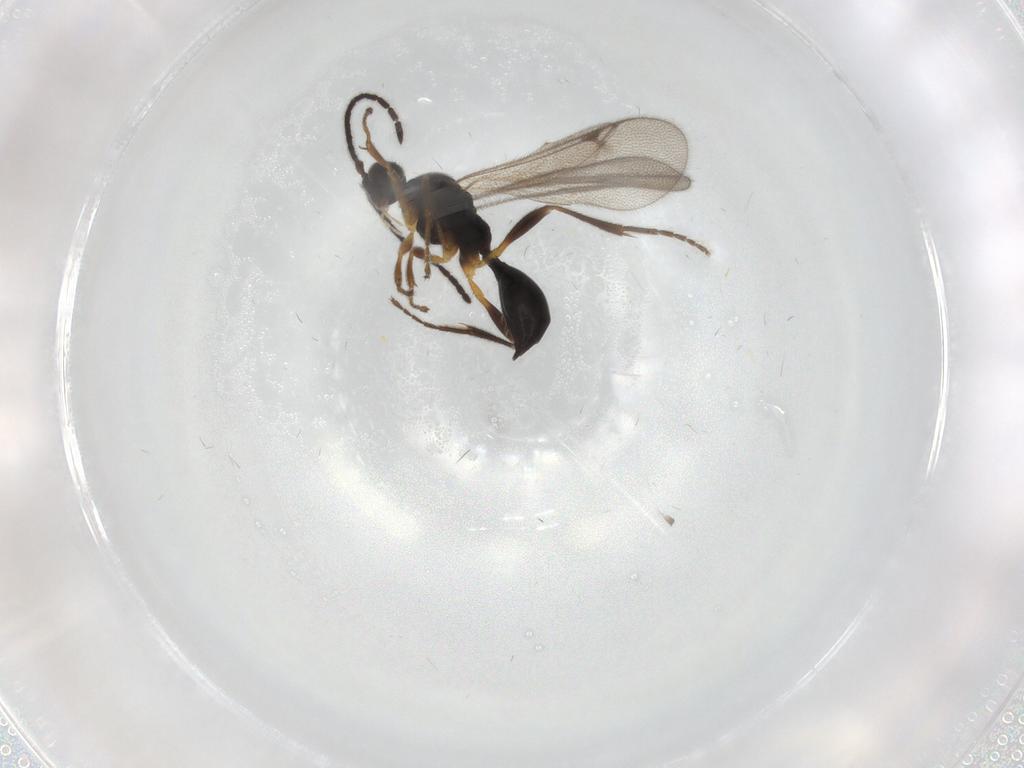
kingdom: Animalia
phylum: Arthropoda
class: Insecta
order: Hymenoptera
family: Proctotrupidae
